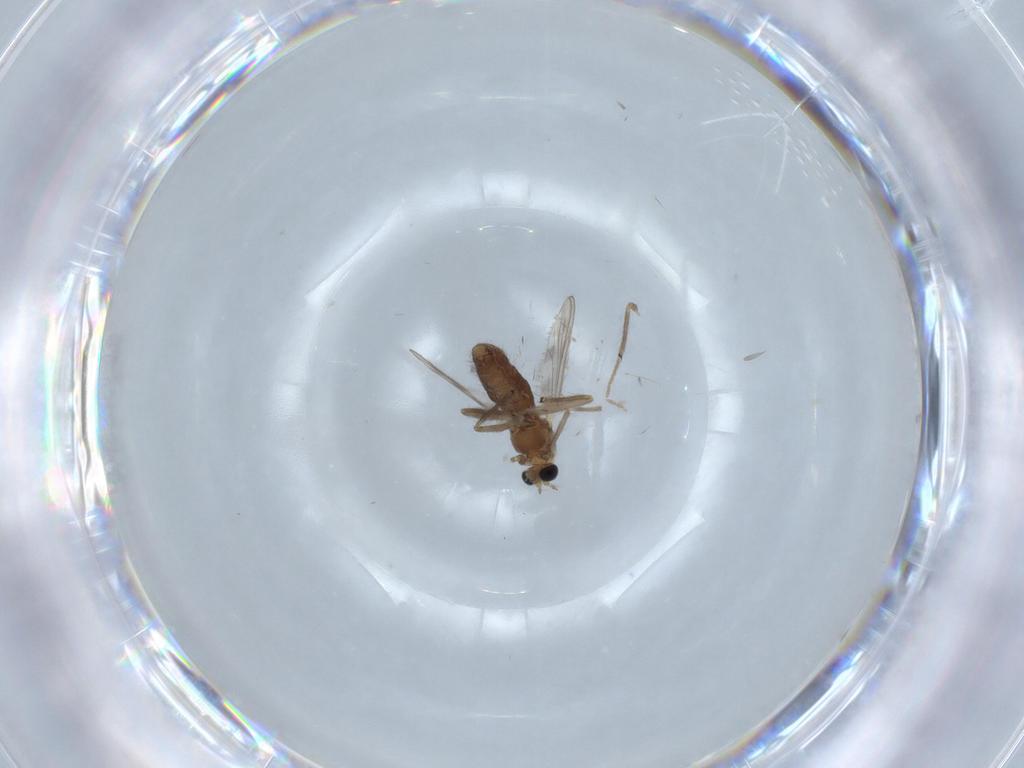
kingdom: Animalia
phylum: Arthropoda
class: Insecta
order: Diptera
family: Chironomidae
